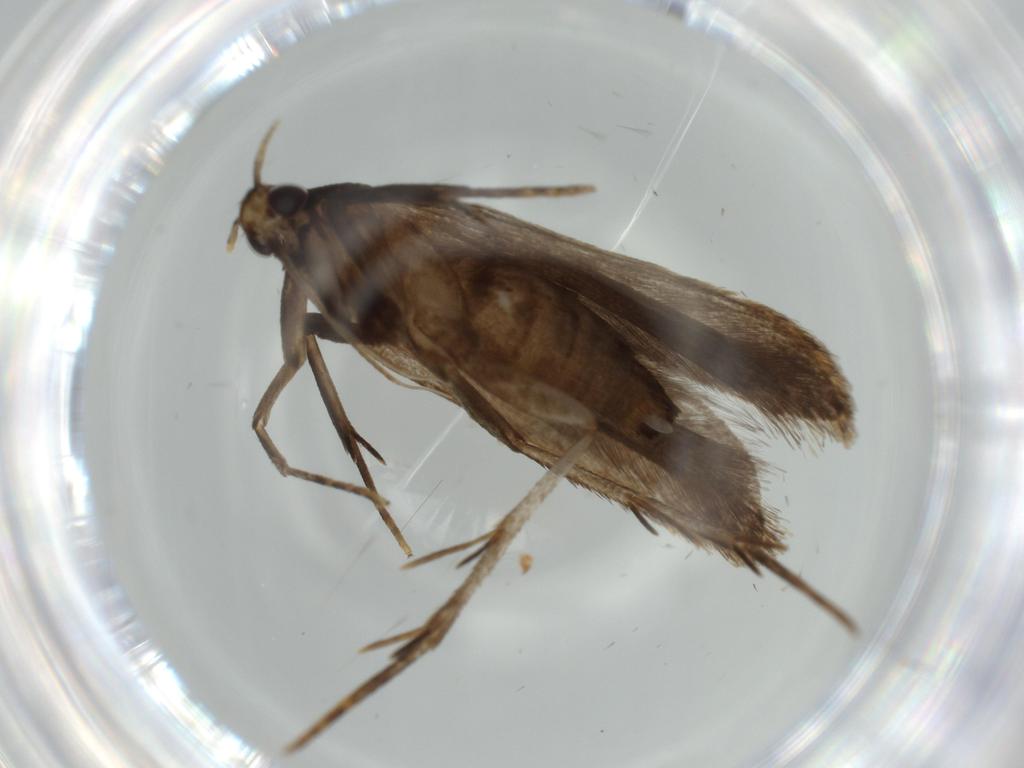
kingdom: Animalia
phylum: Arthropoda
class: Insecta
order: Lepidoptera
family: Gelechiidae
